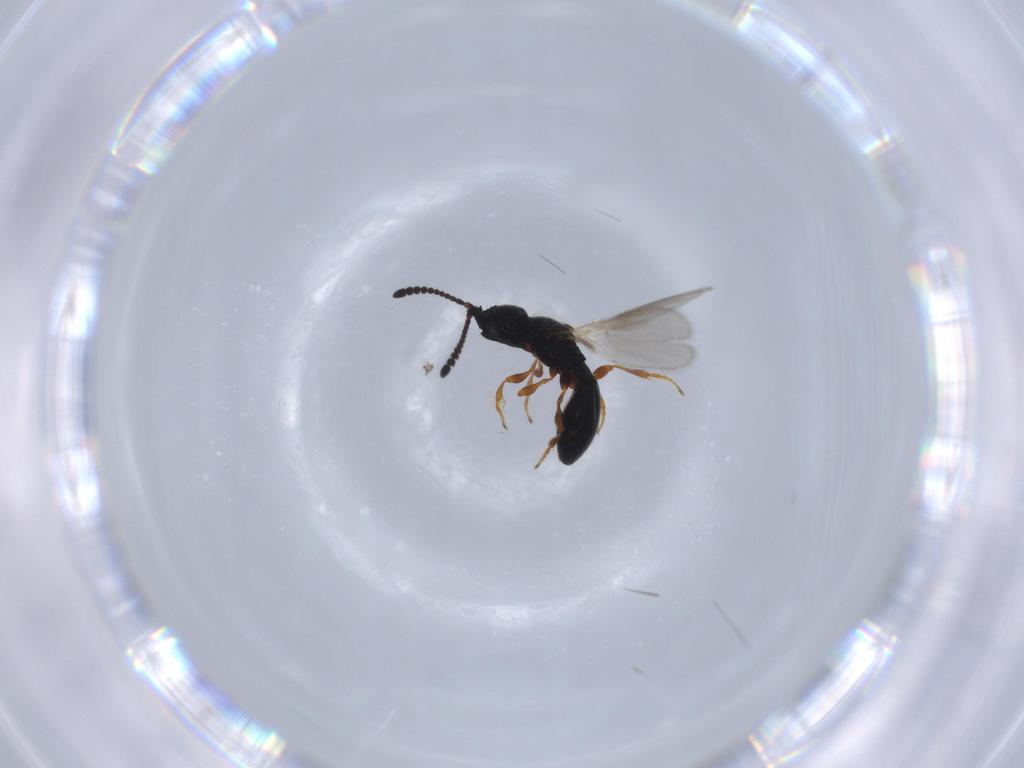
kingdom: Animalia
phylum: Arthropoda
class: Insecta
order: Hymenoptera
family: Diapriidae
